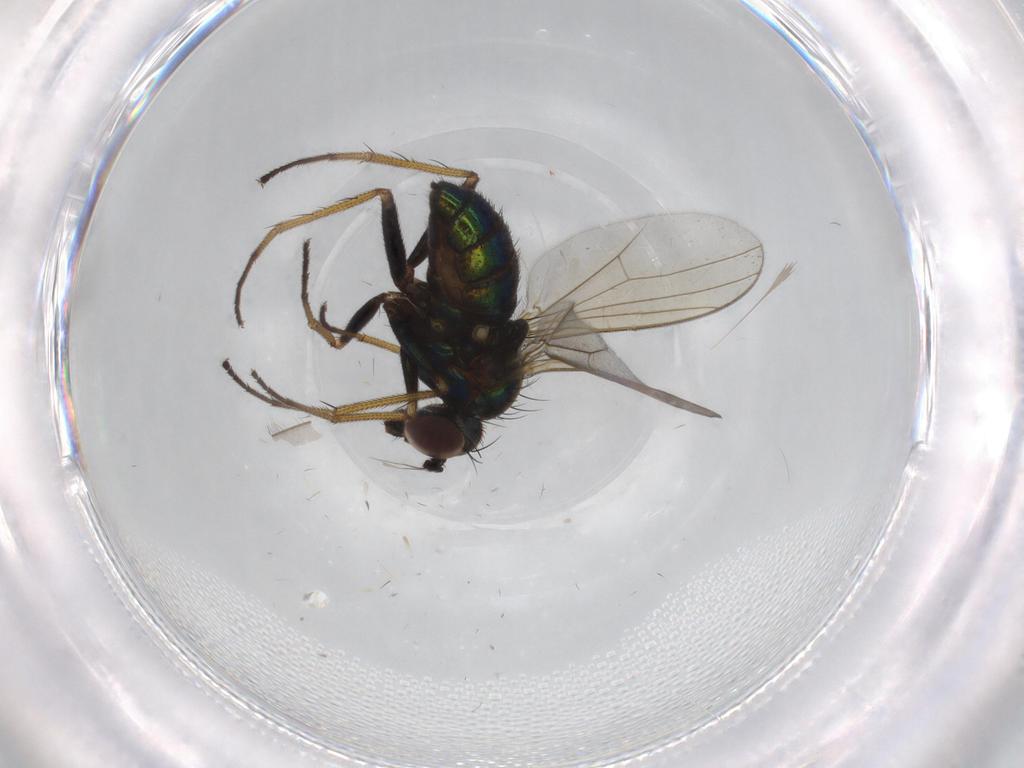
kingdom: Animalia
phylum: Arthropoda
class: Insecta
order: Diptera
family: Dolichopodidae
